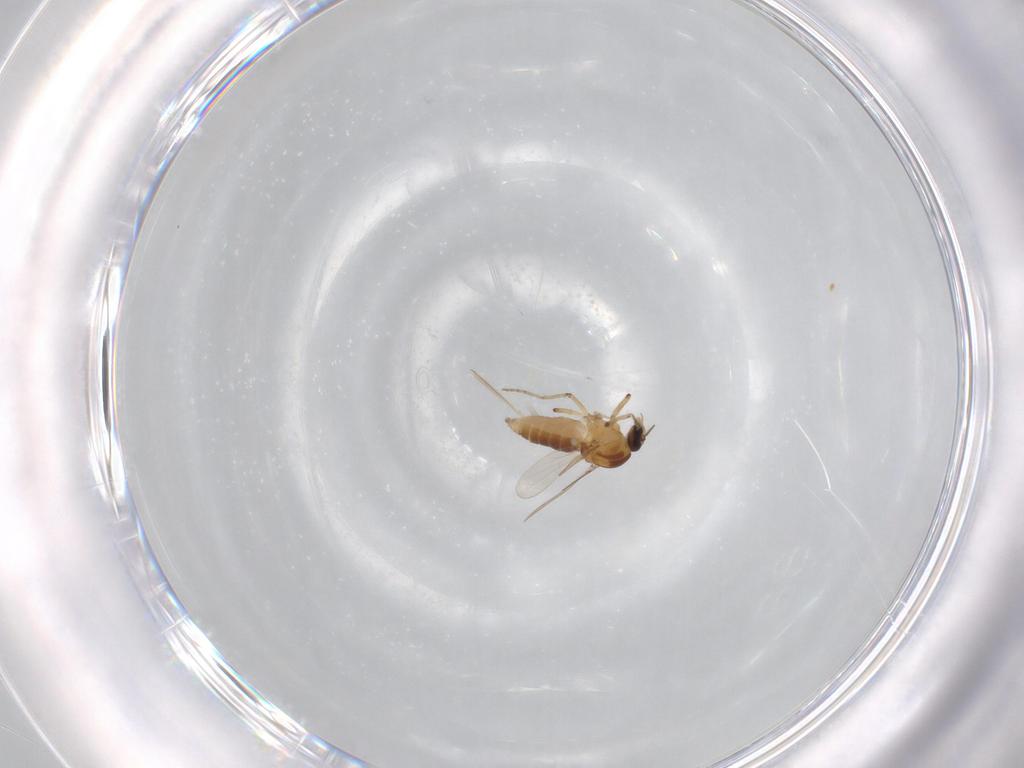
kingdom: Animalia
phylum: Arthropoda
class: Insecta
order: Diptera
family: Ceratopogonidae
